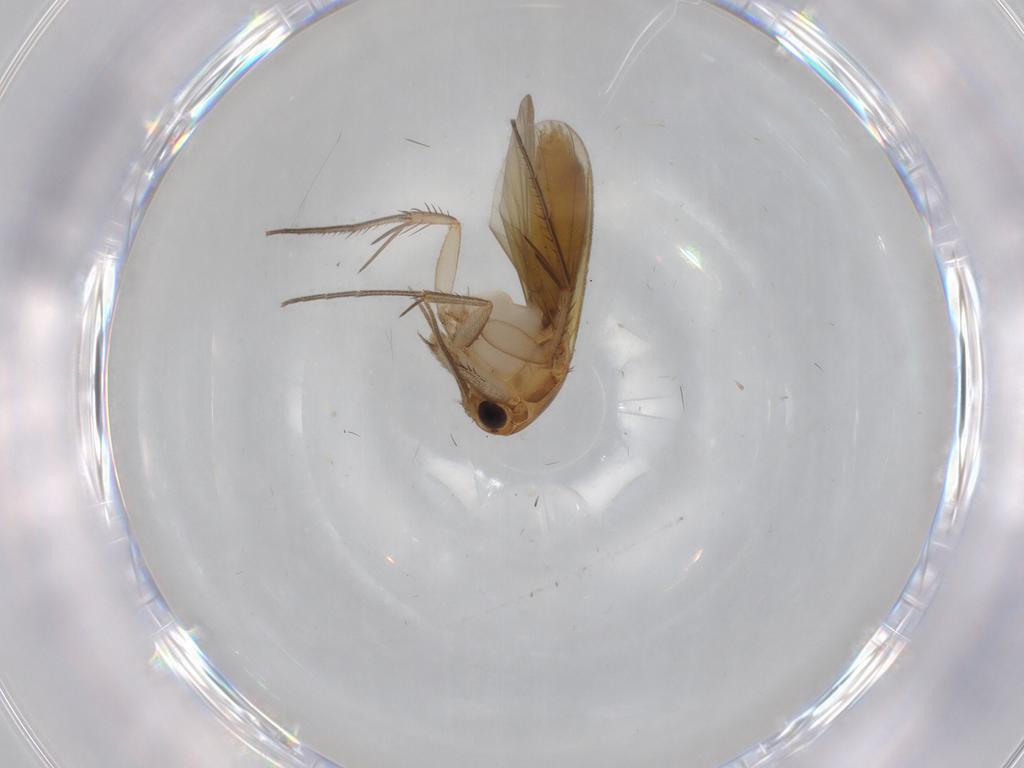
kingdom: Animalia
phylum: Arthropoda
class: Insecta
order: Diptera
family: Mycetophilidae
